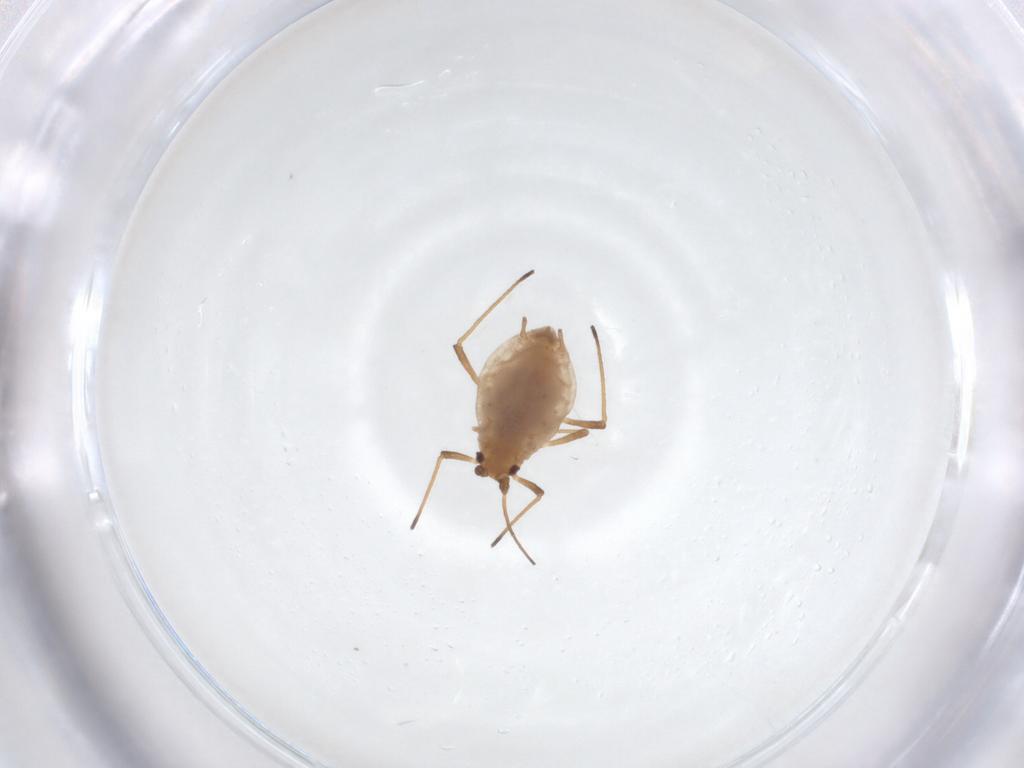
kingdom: Animalia
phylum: Arthropoda
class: Insecta
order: Hemiptera
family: Aphididae
